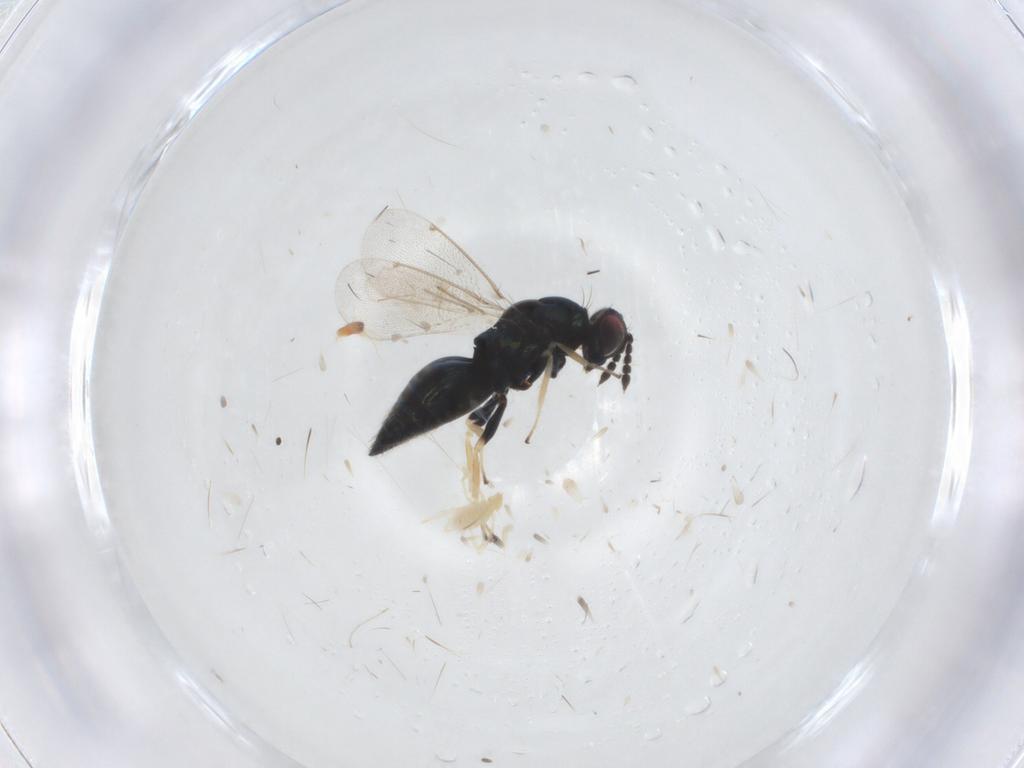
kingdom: Animalia
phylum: Arthropoda
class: Insecta
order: Hymenoptera
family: Eulophidae
